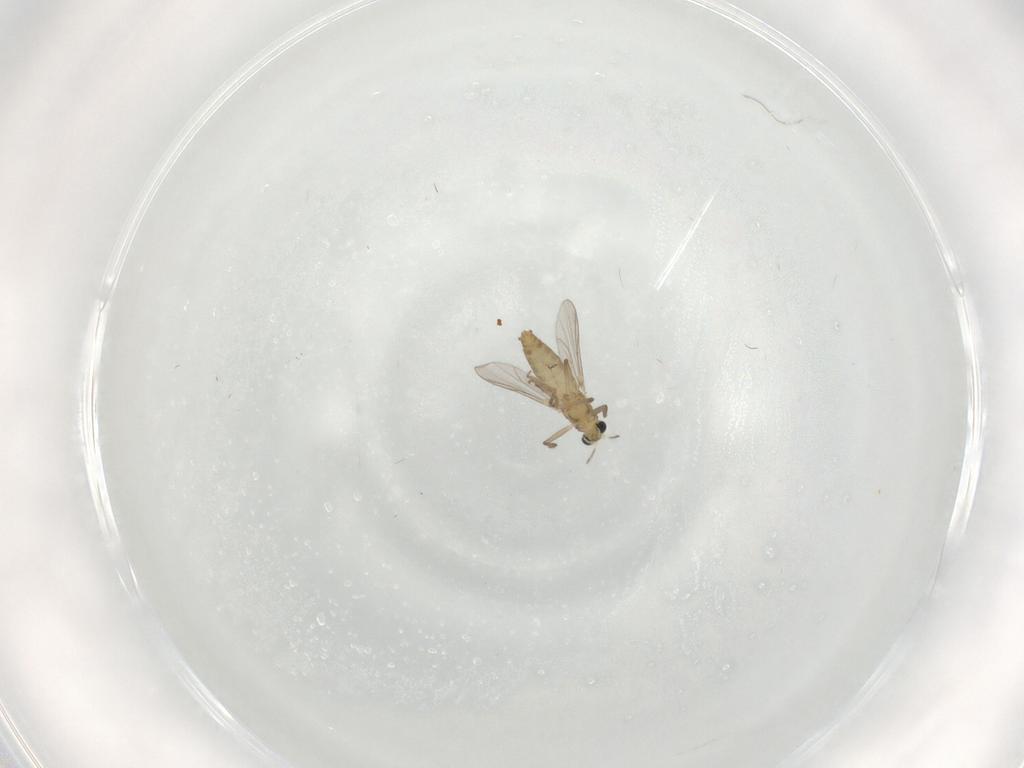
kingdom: Animalia
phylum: Arthropoda
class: Insecta
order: Diptera
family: Chironomidae
